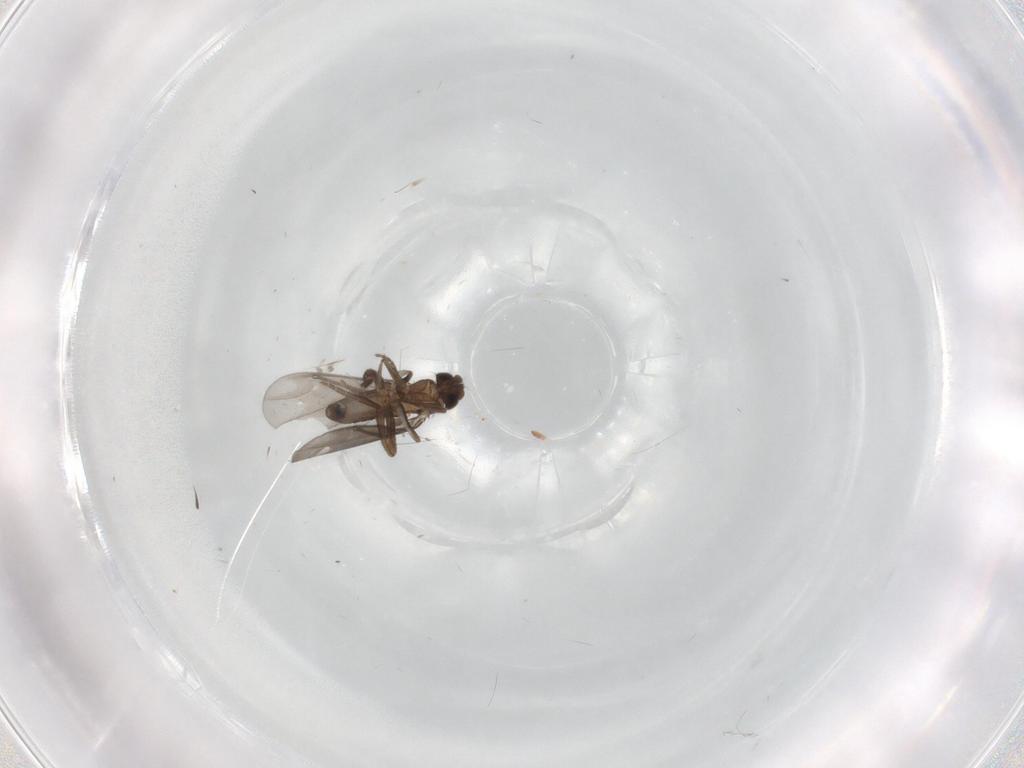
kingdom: Animalia
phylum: Arthropoda
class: Insecta
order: Diptera
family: Phoridae
